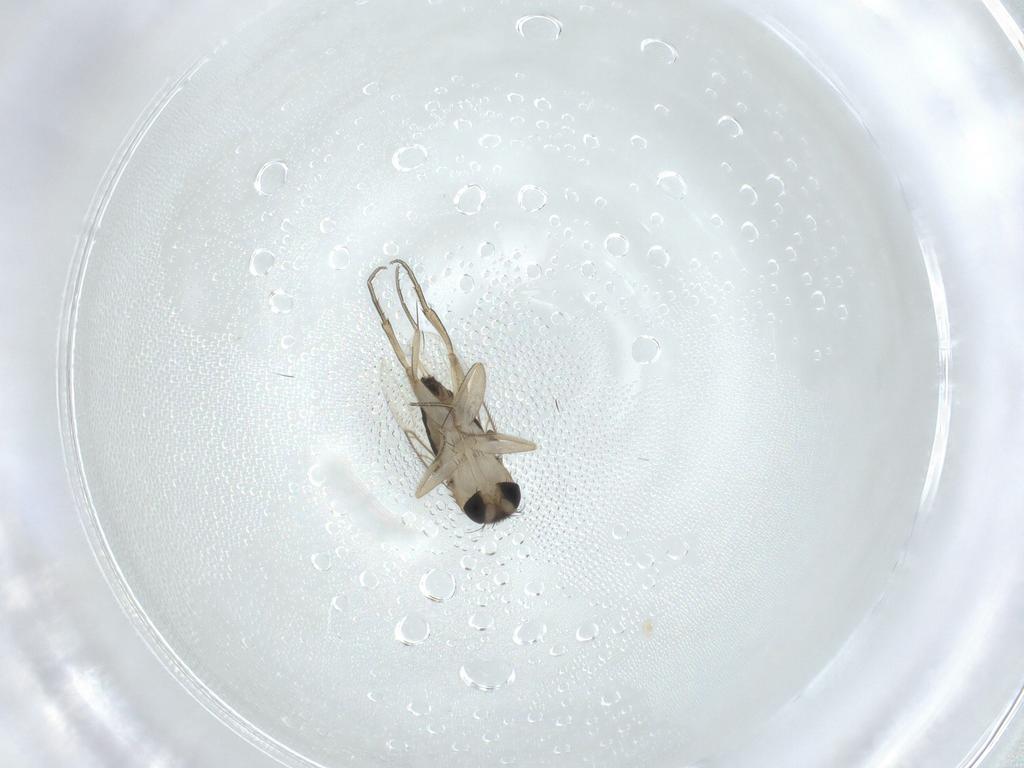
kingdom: Animalia
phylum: Arthropoda
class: Insecta
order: Diptera
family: Phoridae
